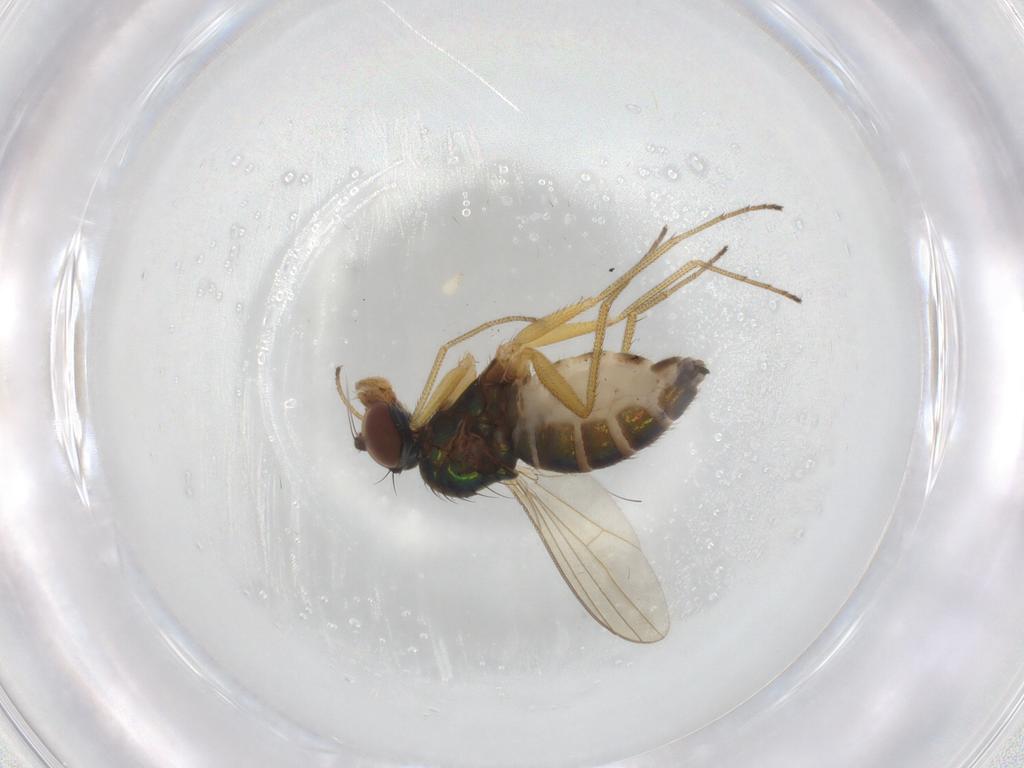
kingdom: Animalia
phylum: Arthropoda
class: Insecta
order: Diptera
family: Dolichopodidae
